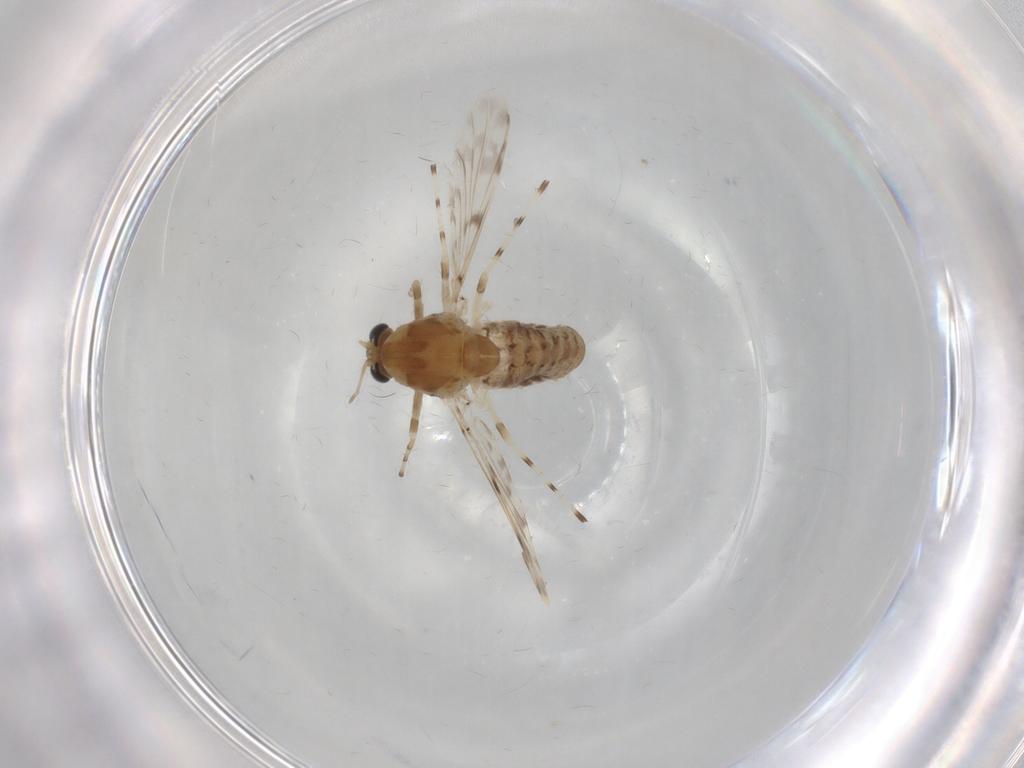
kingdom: Animalia
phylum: Arthropoda
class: Insecta
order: Diptera
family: Chironomidae
